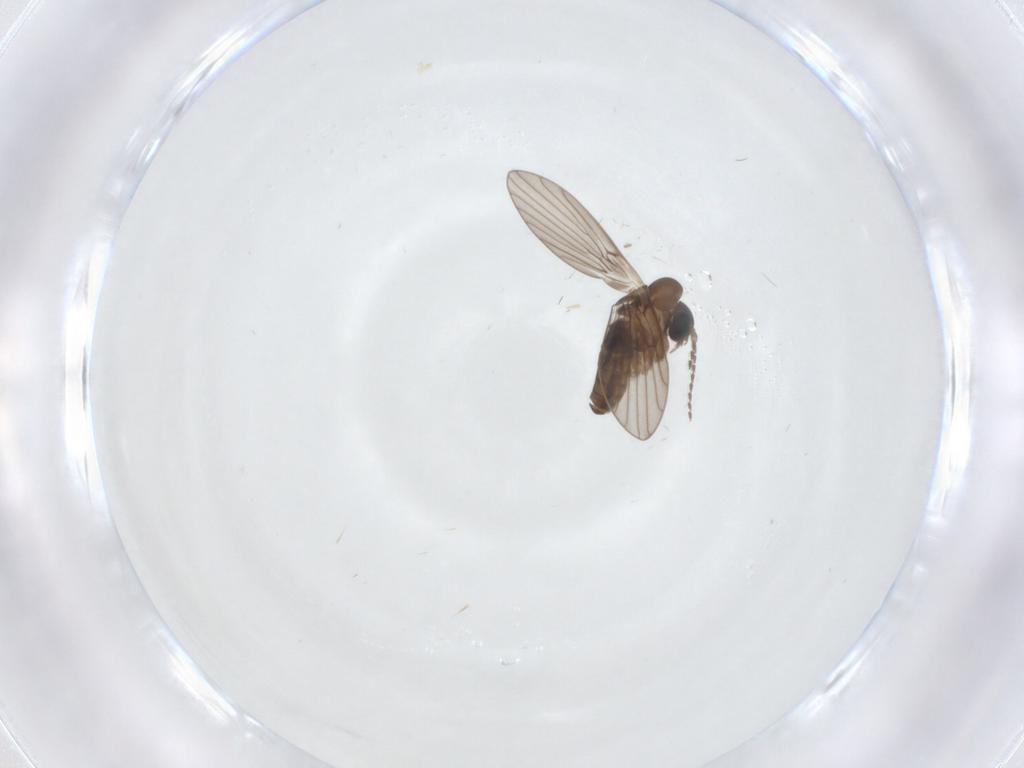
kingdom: Animalia
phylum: Arthropoda
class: Insecta
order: Diptera
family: Psychodidae
